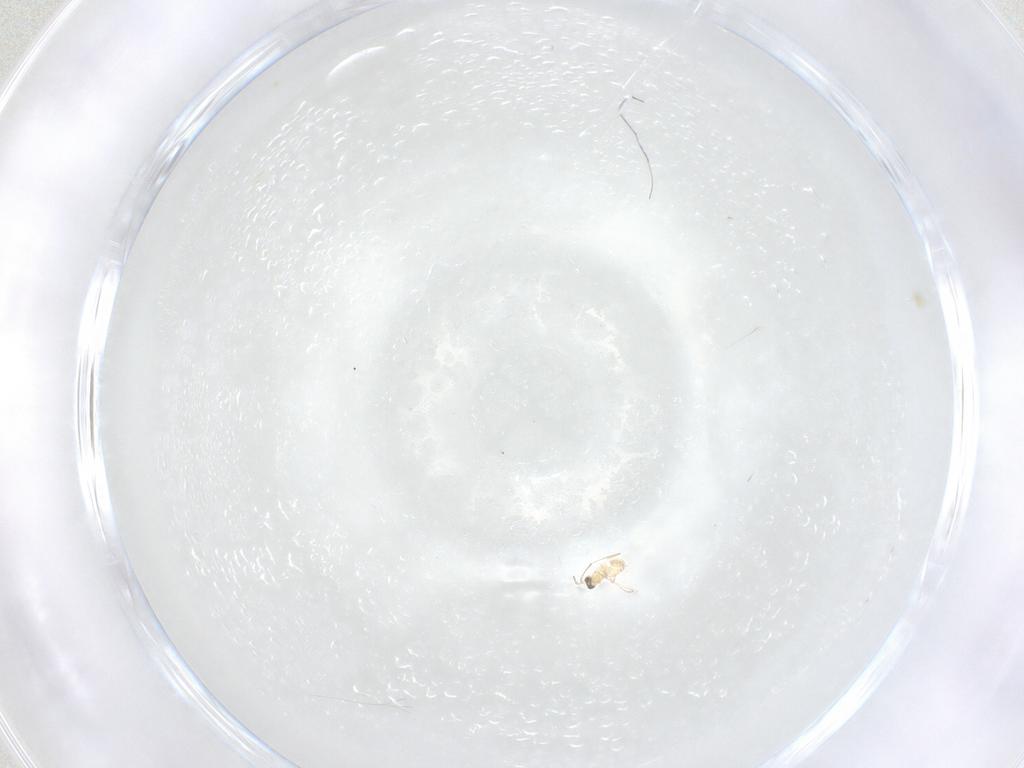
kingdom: Animalia
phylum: Arthropoda
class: Insecta
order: Hymenoptera
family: Mymaridae
